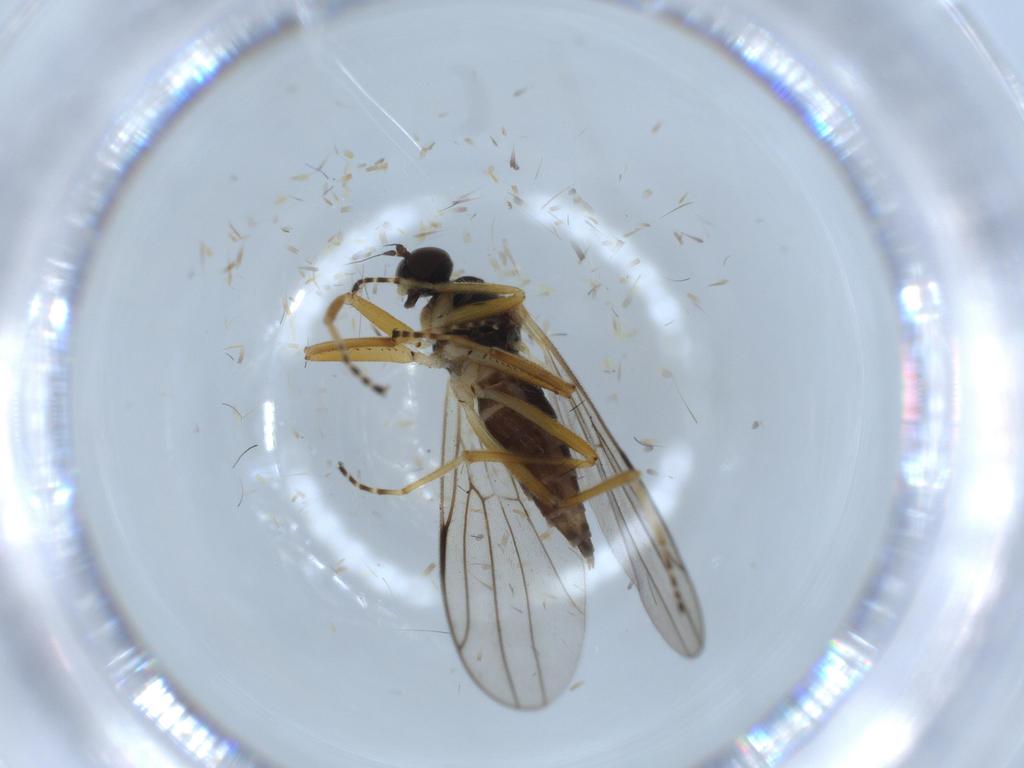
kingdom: Animalia
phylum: Arthropoda
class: Insecta
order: Diptera
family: Hybotidae
